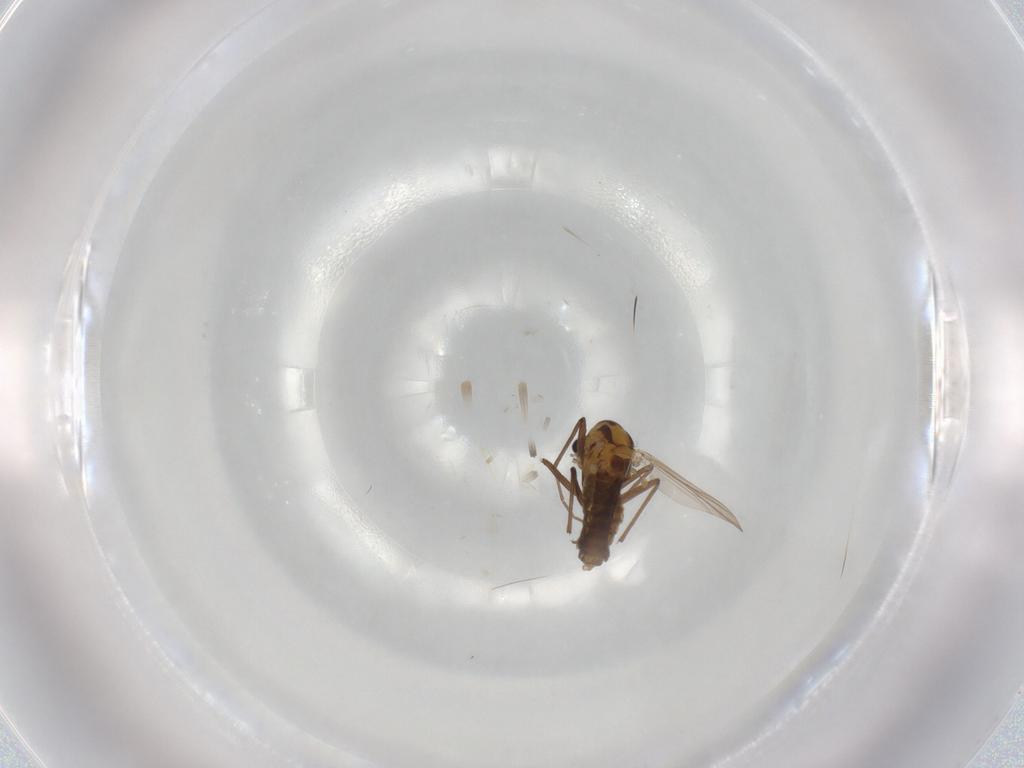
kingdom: Animalia
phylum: Arthropoda
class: Insecta
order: Diptera
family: Chironomidae
